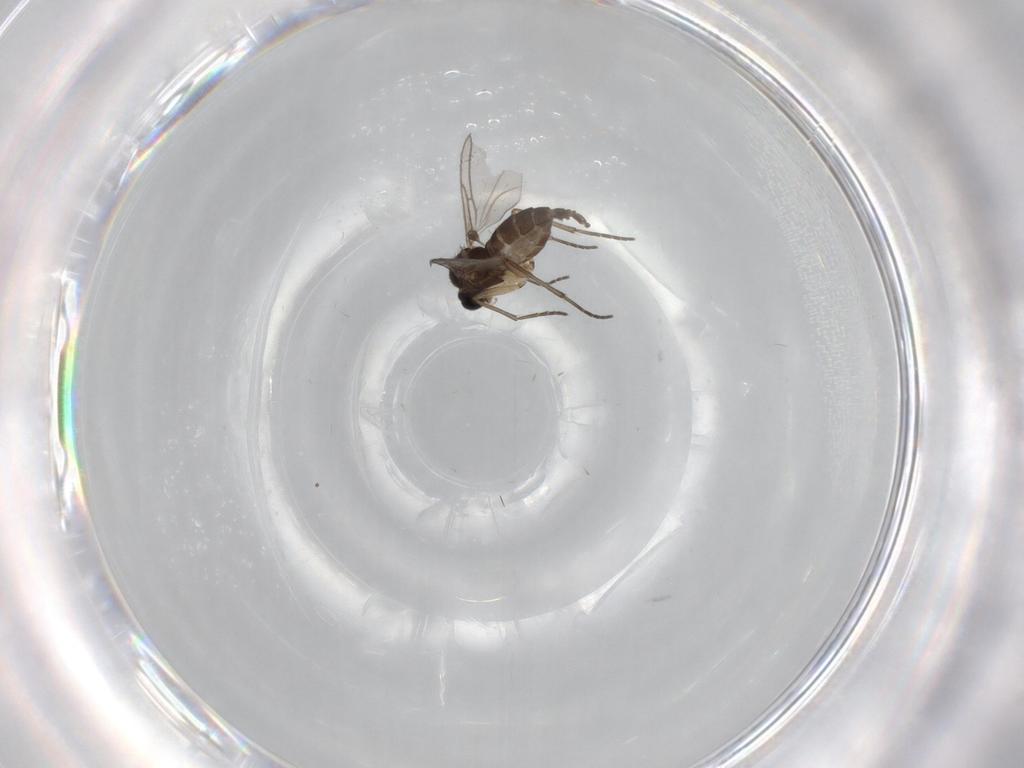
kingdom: Animalia
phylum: Arthropoda
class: Insecta
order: Diptera
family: Sciaridae
